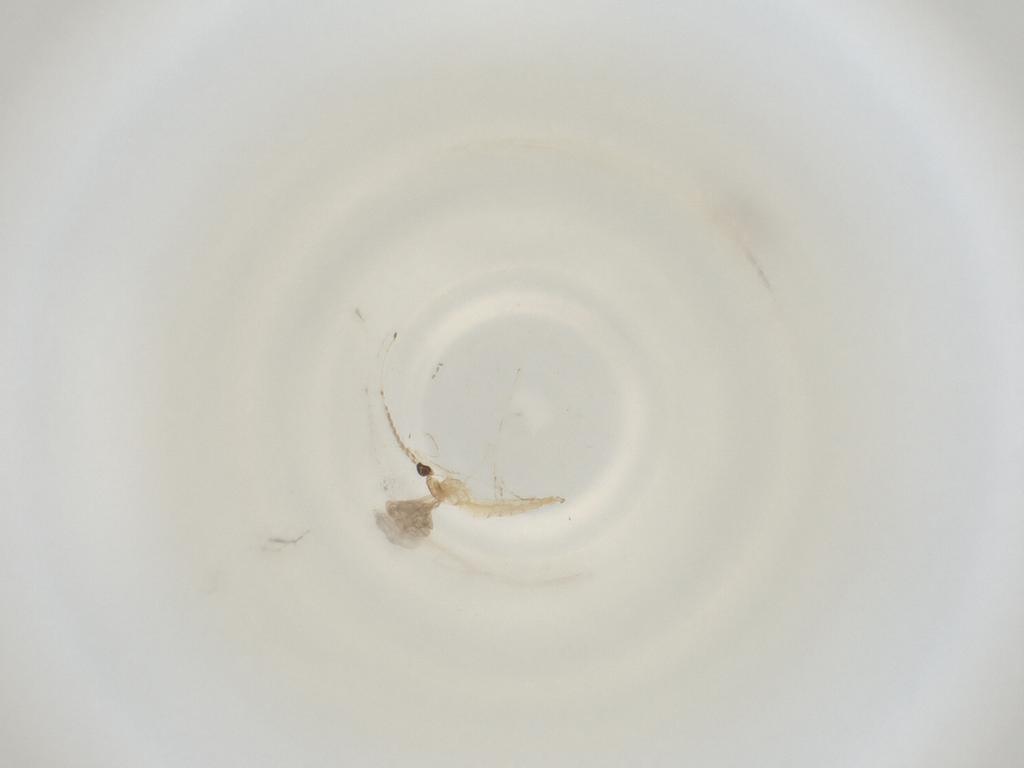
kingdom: Animalia
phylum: Arthropoda
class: Insecta
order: Diptera
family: Cecidomyiidae
